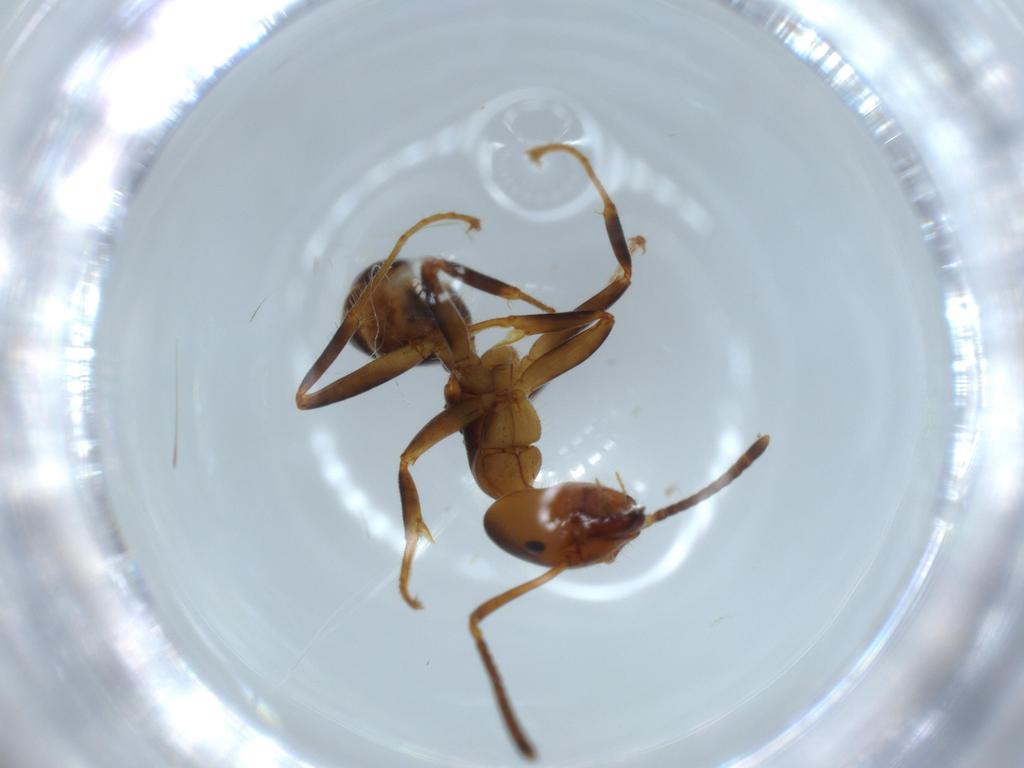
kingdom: Animalia
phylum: Arthropoda
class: Insecta
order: Hymenoptera
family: Formicidae
